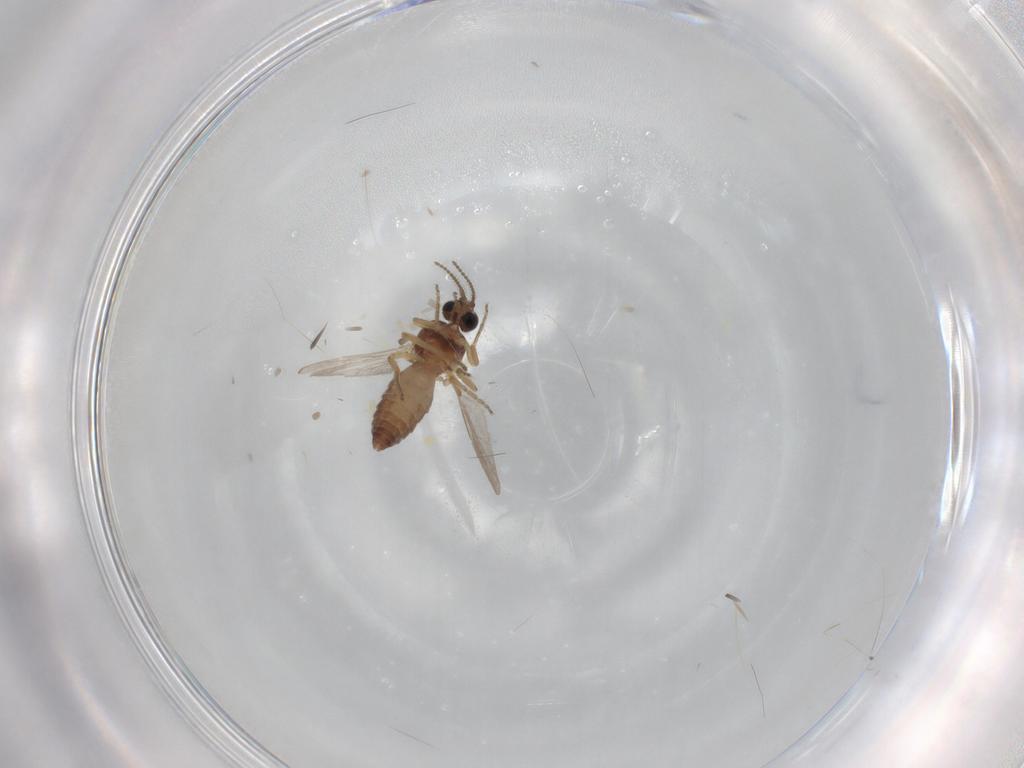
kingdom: Animalia
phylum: Arthropoda
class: Insecta
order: Diptera
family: Ceratopogonidae
